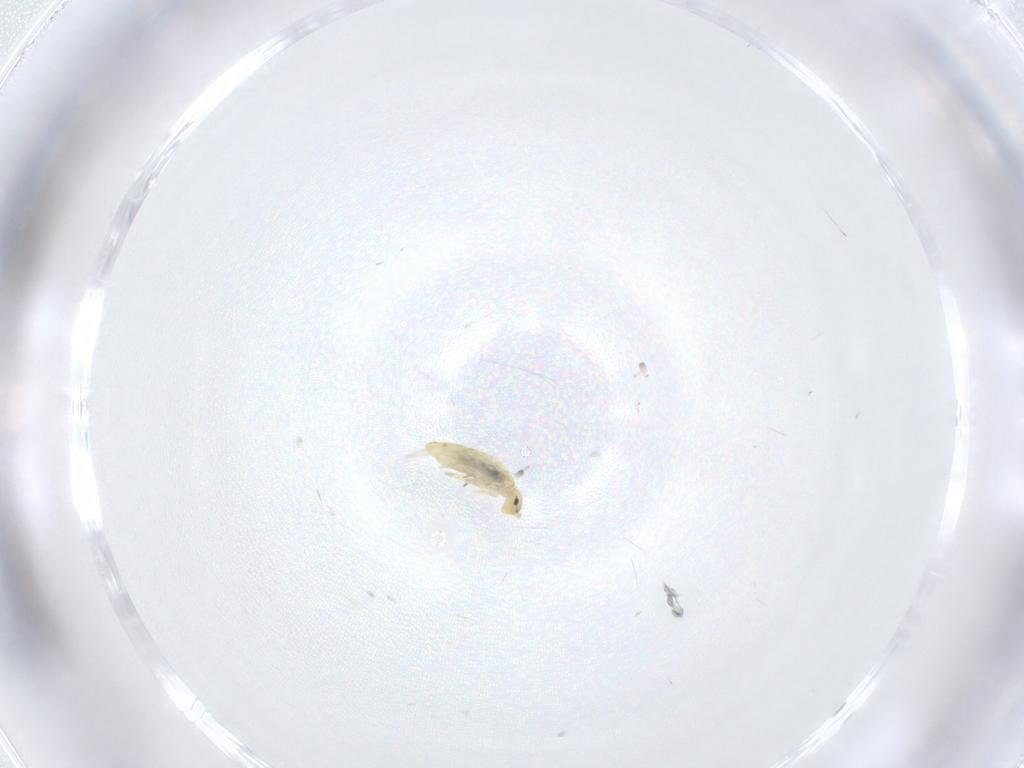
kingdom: Animalia
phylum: Arthropoda
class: Collembola
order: Entomobryomorpha
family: Entomobryidae
